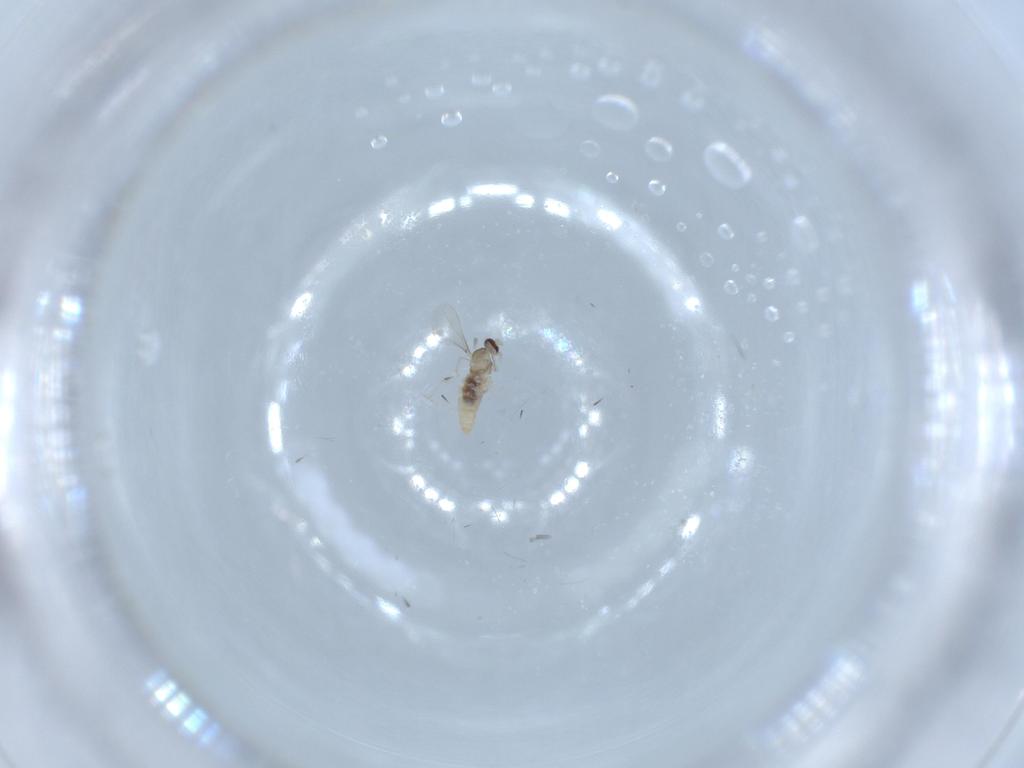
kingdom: Animalia
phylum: Arthropoda
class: Insecta
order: Diptera
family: Cecidomyiidae
